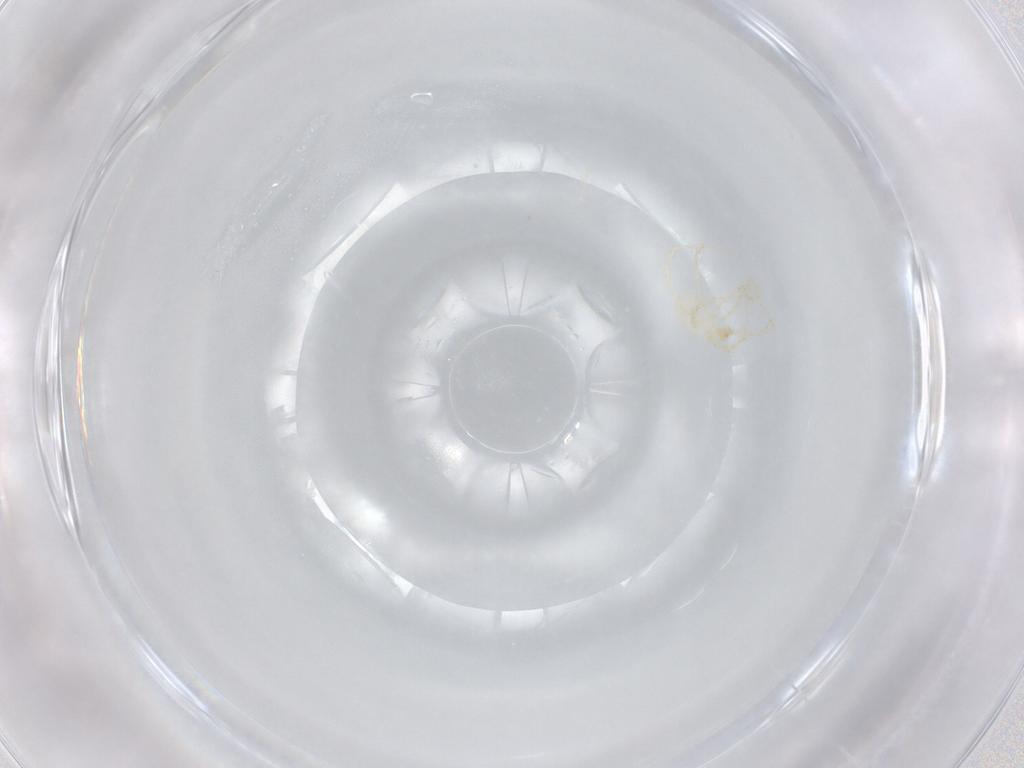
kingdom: Animalia
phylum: Arthropoda
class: Arachnida
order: Trombidiformes
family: Erythraeidae
